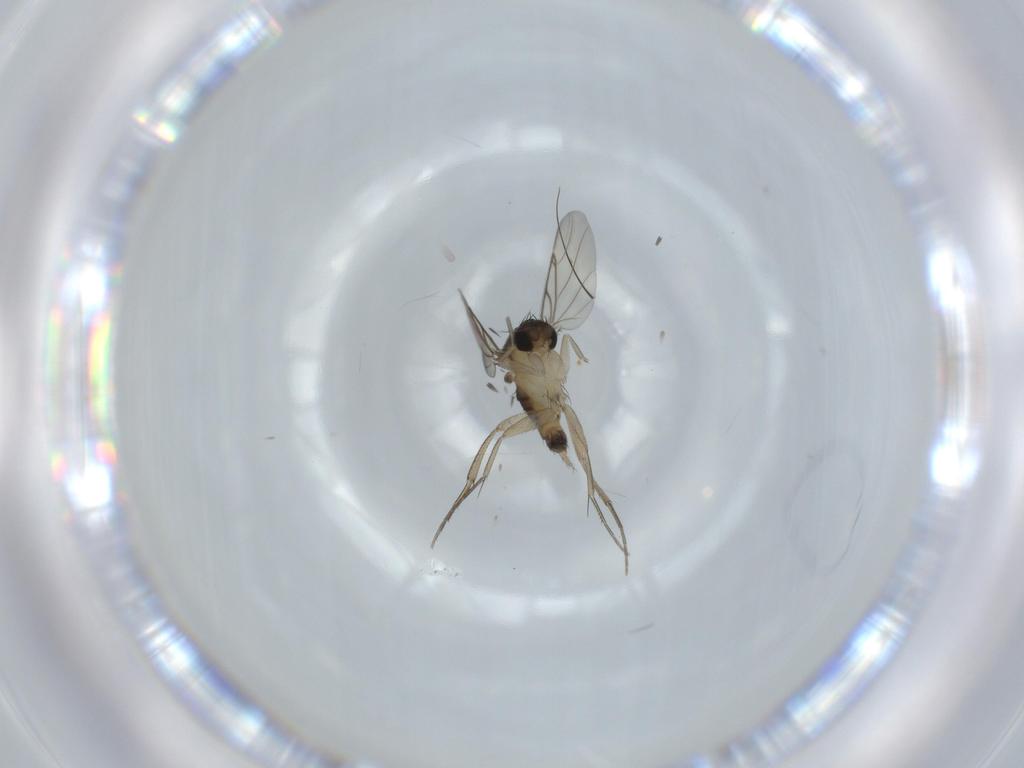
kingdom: Animalia
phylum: Arthropoda
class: Insecta
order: Diptera
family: Phoridae
